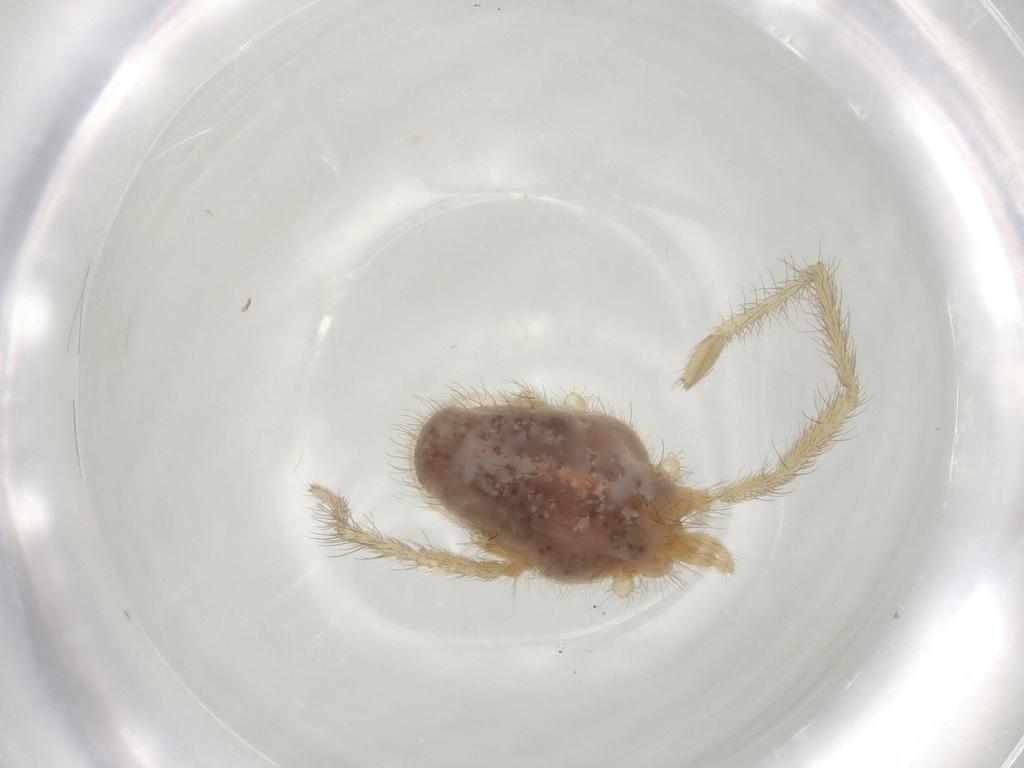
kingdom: Animalia
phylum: Arthropoda
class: Arachnida
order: Trombidiformes
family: Erythraeidae
